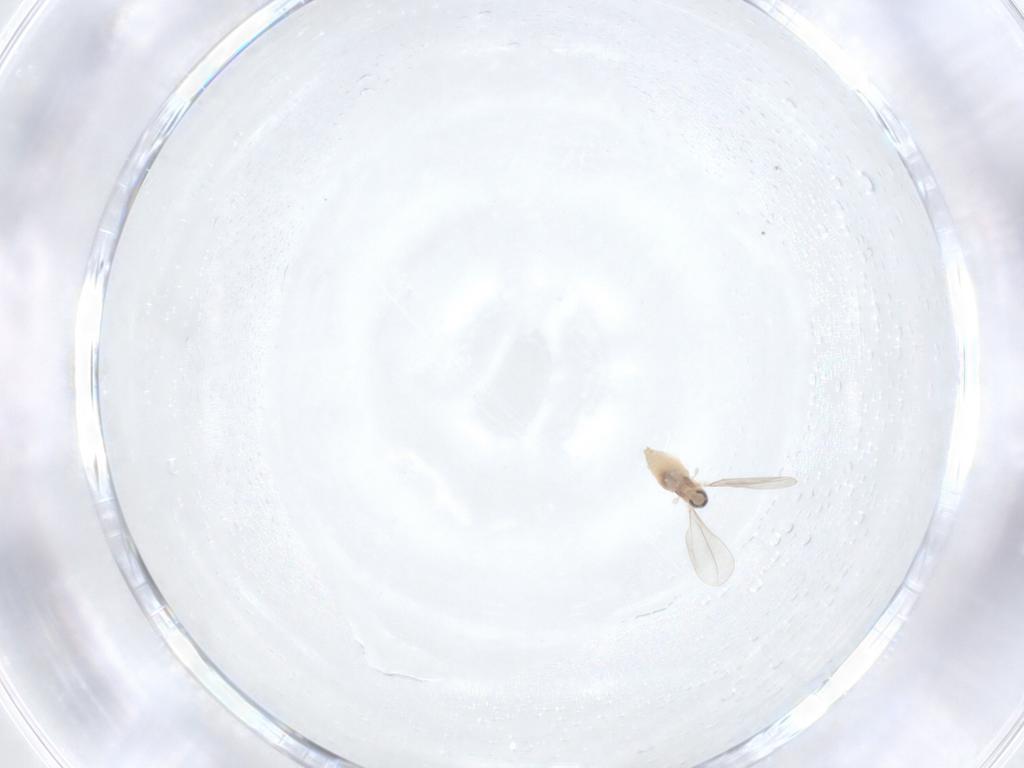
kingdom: Animalia
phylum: Arthropoda
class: Insecta
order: Diptera
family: Cecidomyiidae
